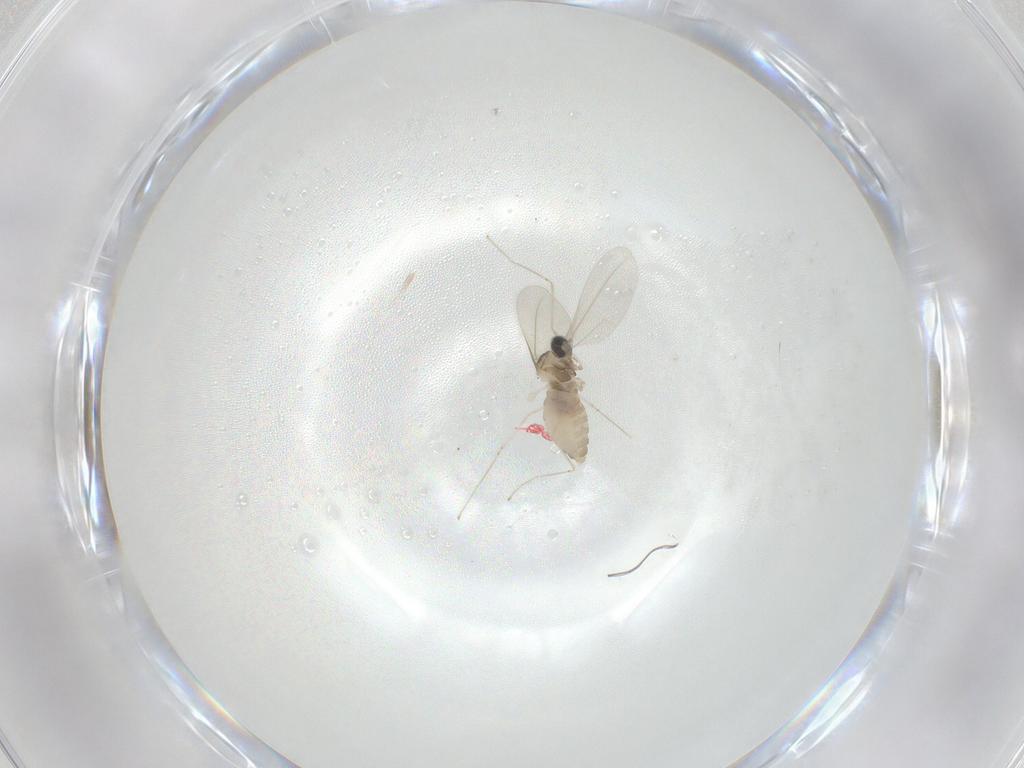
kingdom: Animalia
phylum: Arthropoda
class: Insecta
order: Diptera
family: Cecidomyiidae
